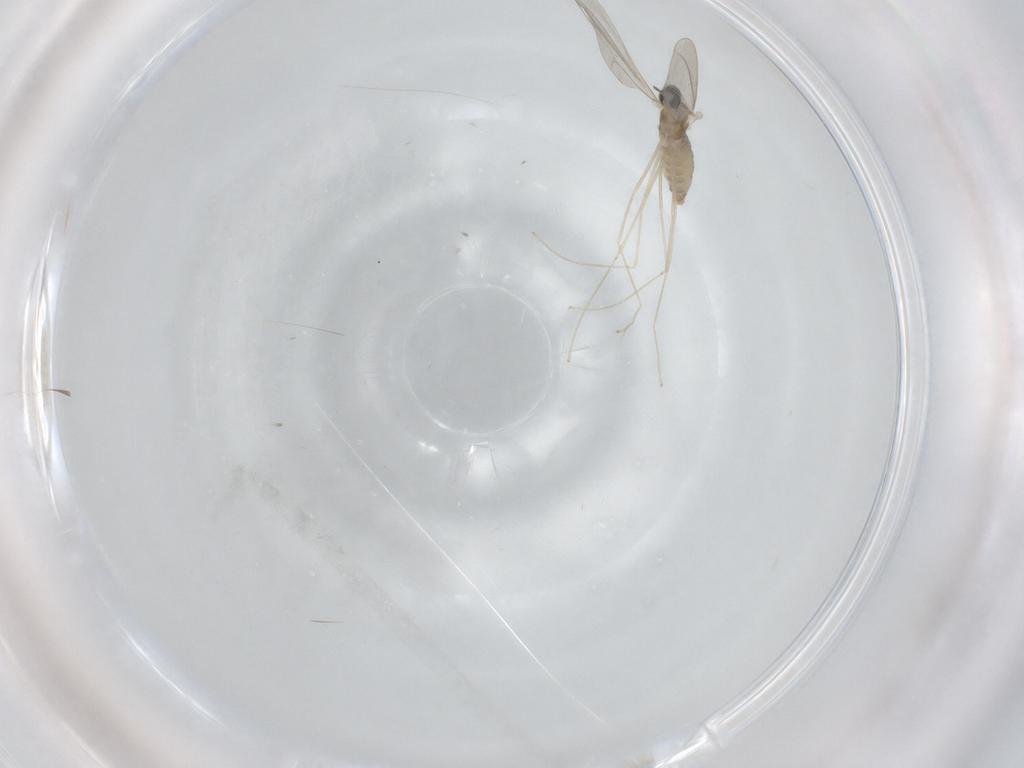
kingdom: Animalia
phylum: Arthropoda
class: Insecta
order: Diptera
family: Cecidomyiidae
